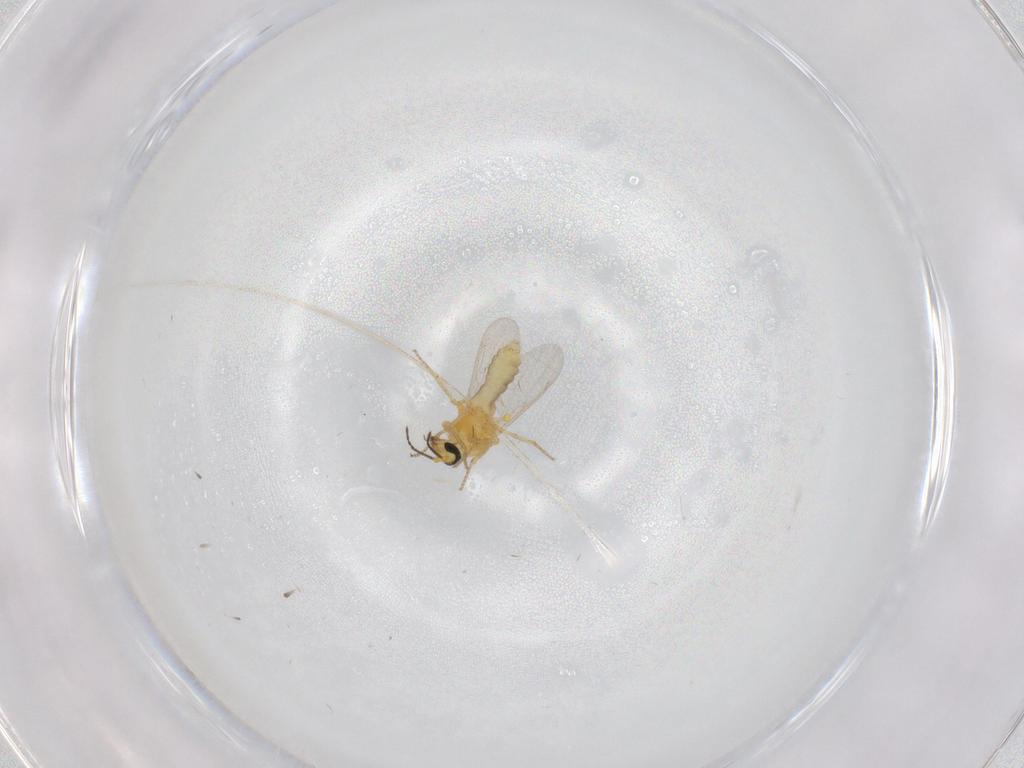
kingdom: Animalia
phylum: Arthropoda
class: Insecta
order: Diptera
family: Ceratopogonidae
